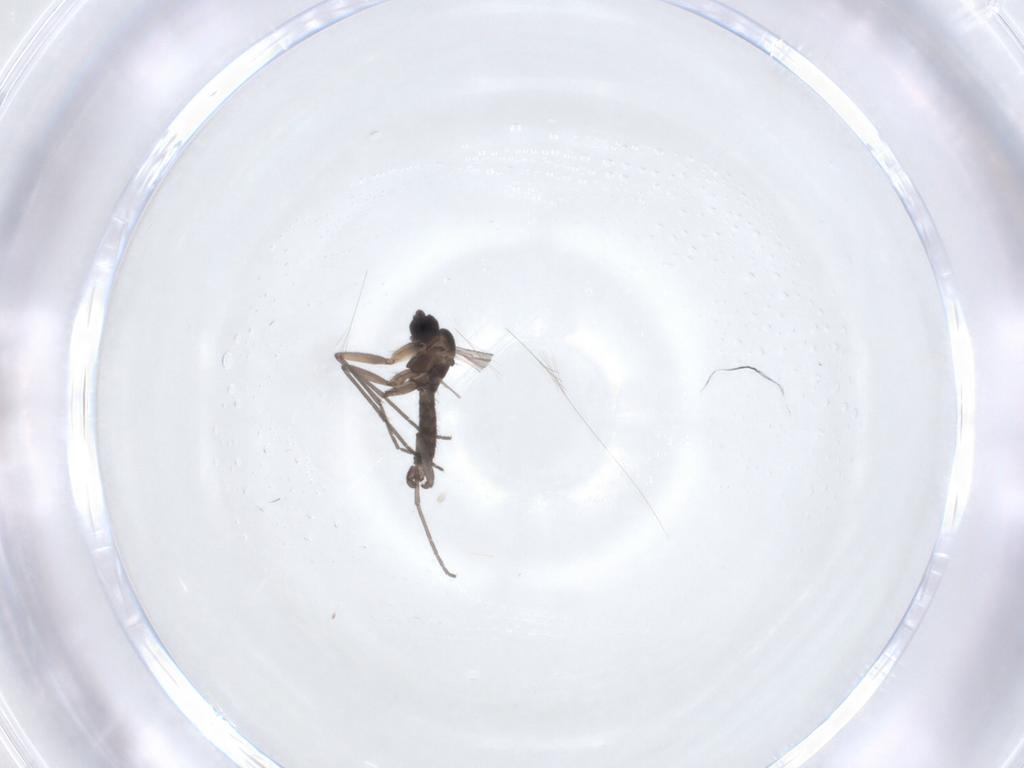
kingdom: Animalia
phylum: Arthropoda
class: Insecta
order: Diptera
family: Sciaridae
